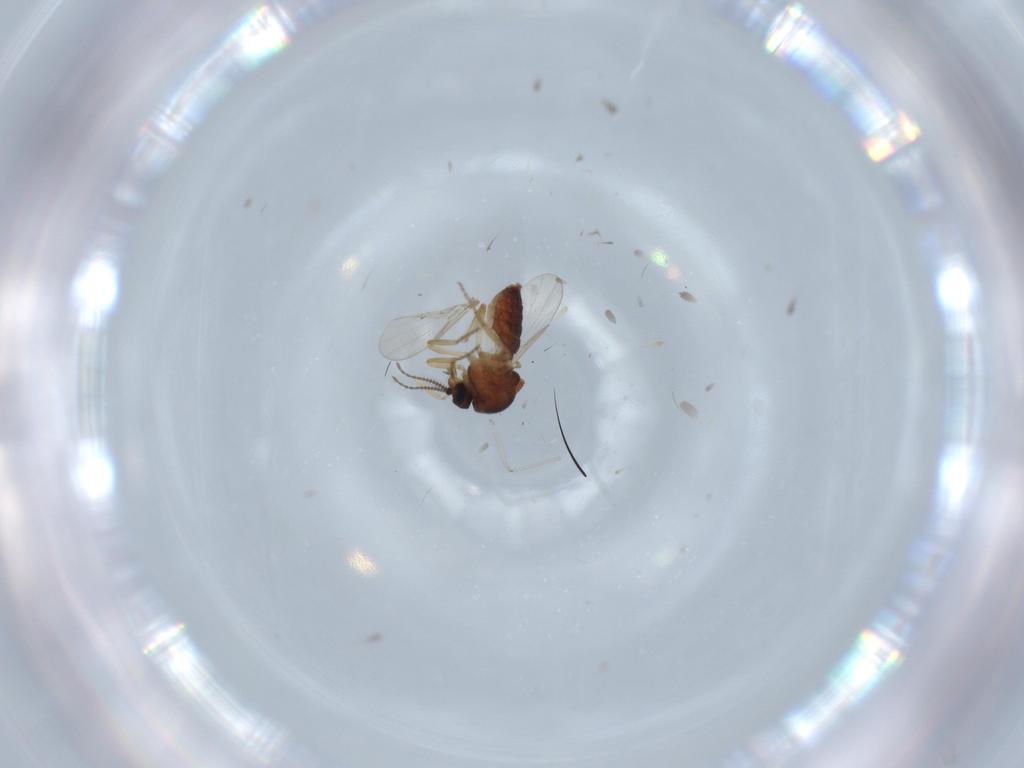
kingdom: Animalia
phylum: Arthropoda
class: Insecta
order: Diptera
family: Ceratopogonidae
